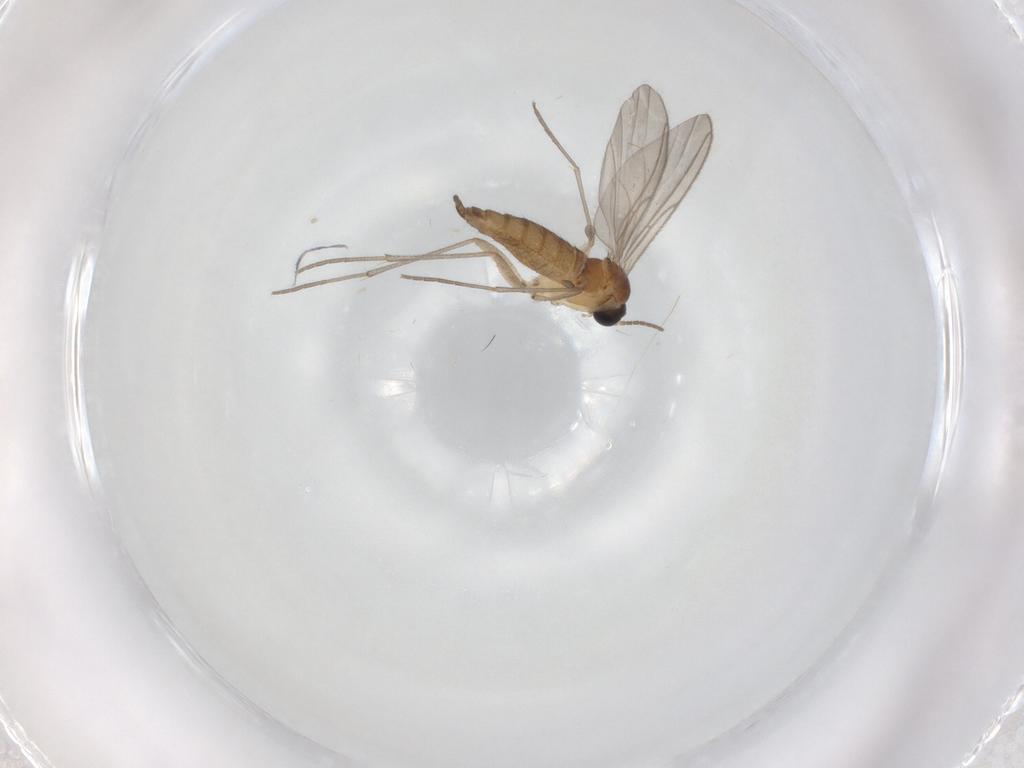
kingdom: Animalia
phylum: Arthropoda
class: Insecta
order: Diptera
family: Sciaridae
